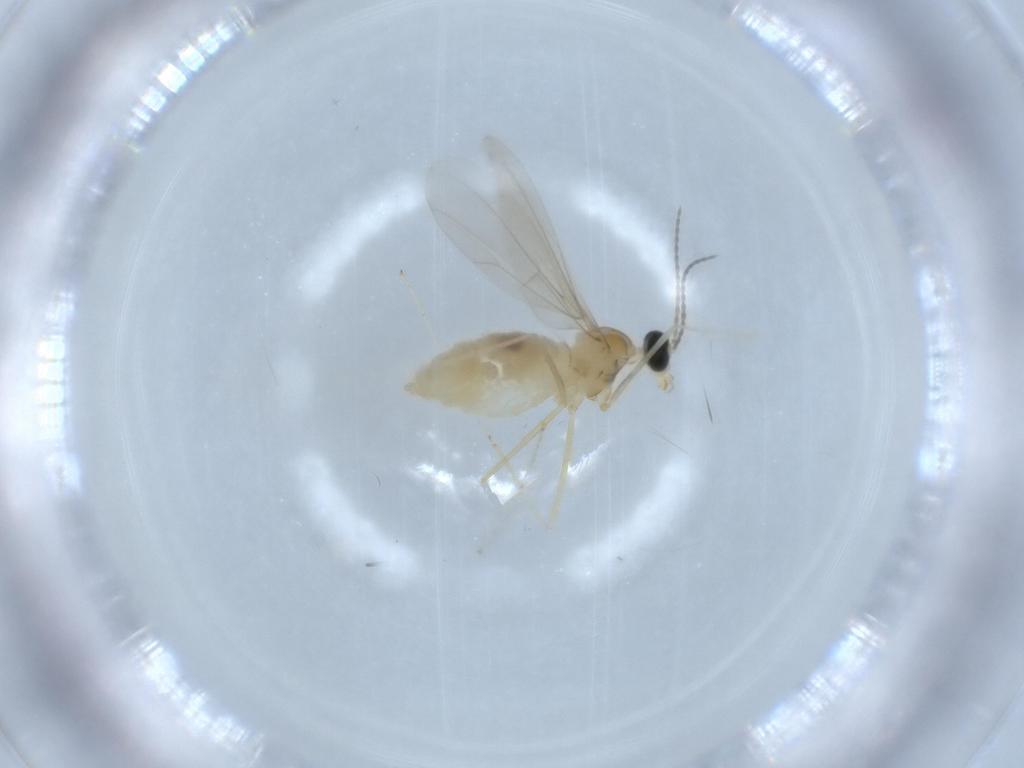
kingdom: Animalia
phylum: Arthropoda
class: Insecta
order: Diptera
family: Cecidomyiidae
